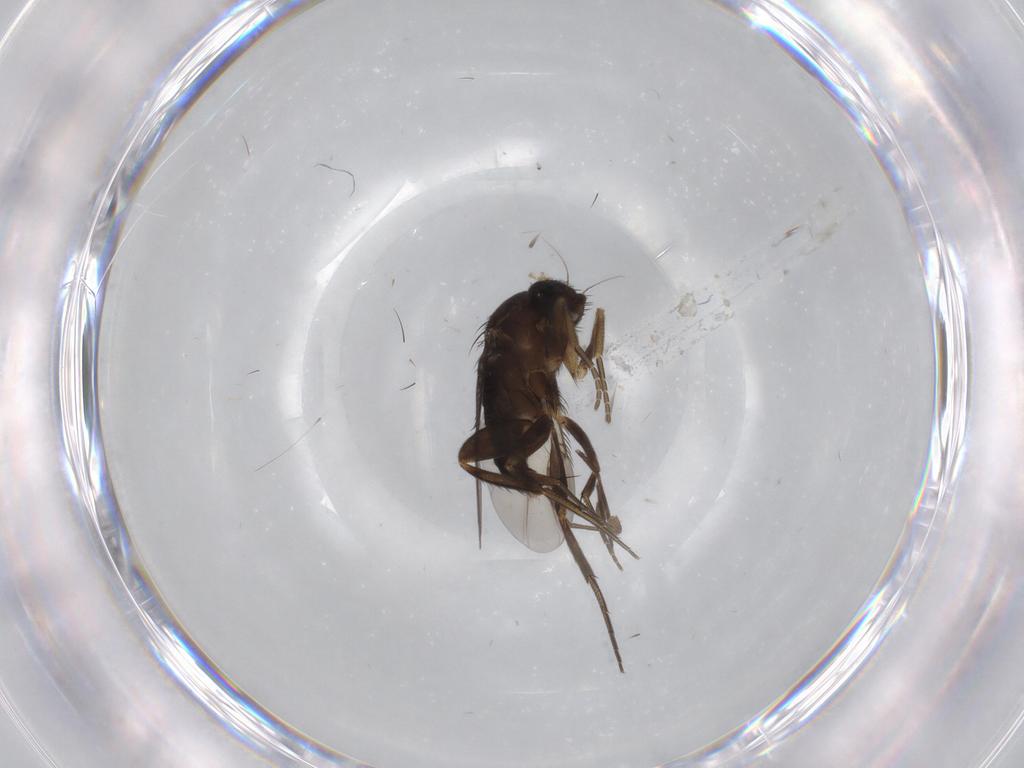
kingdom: Animalia
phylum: Arthropoda
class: Insecta
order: Diptera
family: Phoridae
